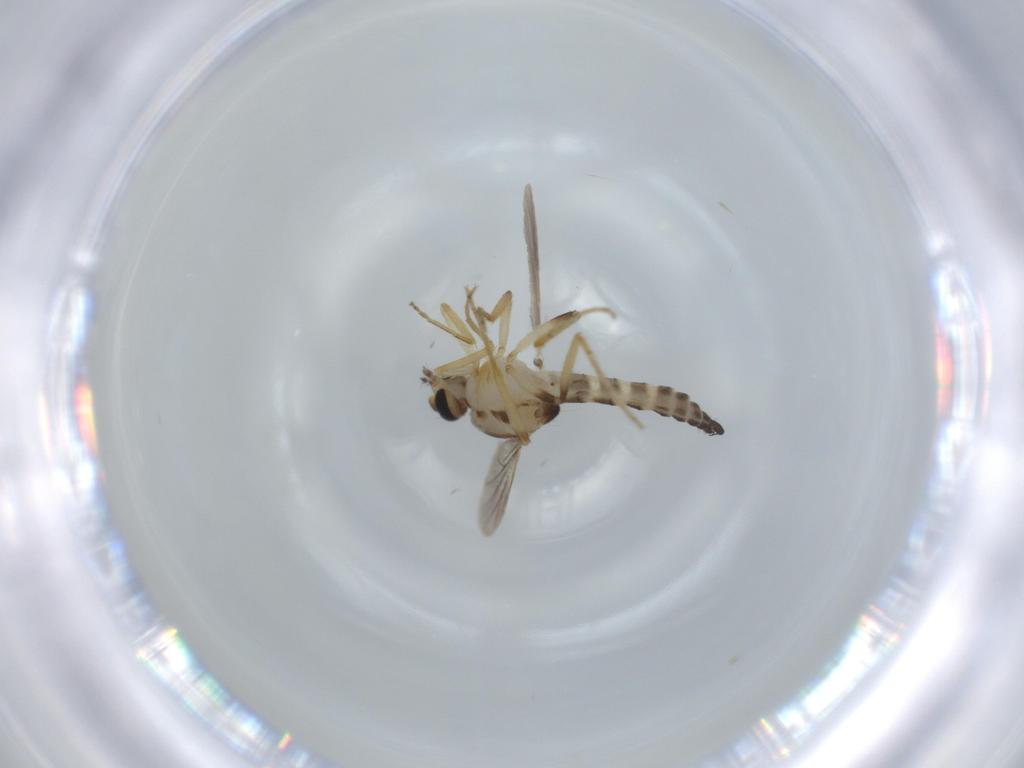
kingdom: Animalia
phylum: Arthropoda
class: Insecta
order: Diptera
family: Ceratopogonidae
